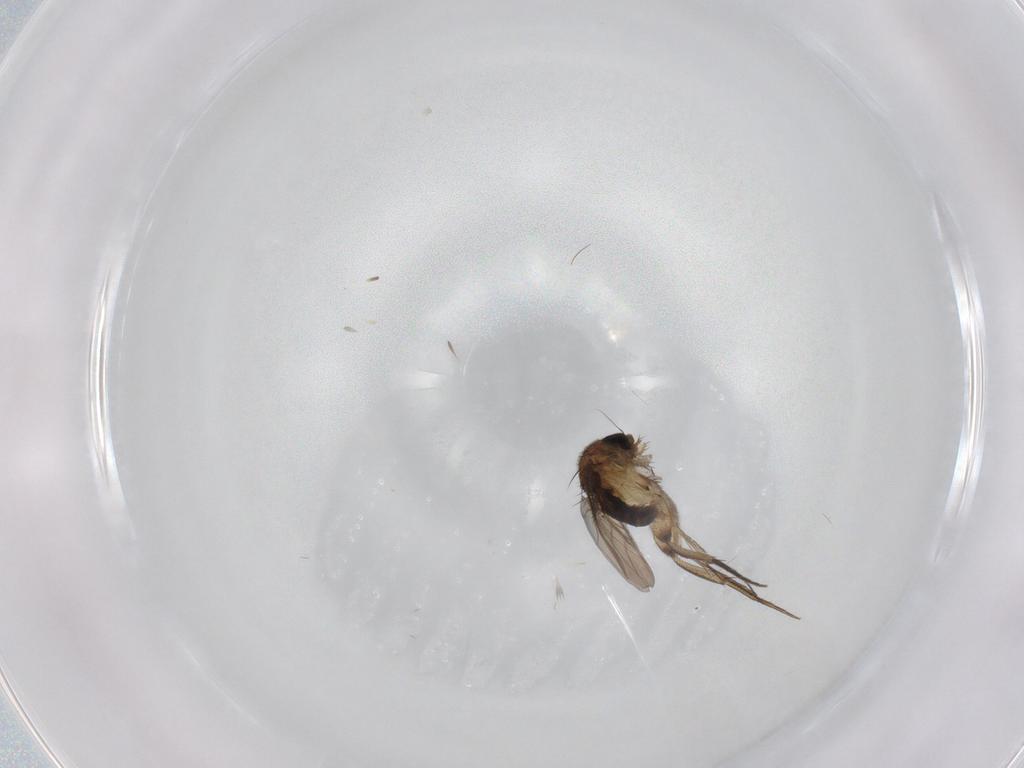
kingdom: Animalia
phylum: Arthropoda
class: Insecta
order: Diptera
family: Phoridae
